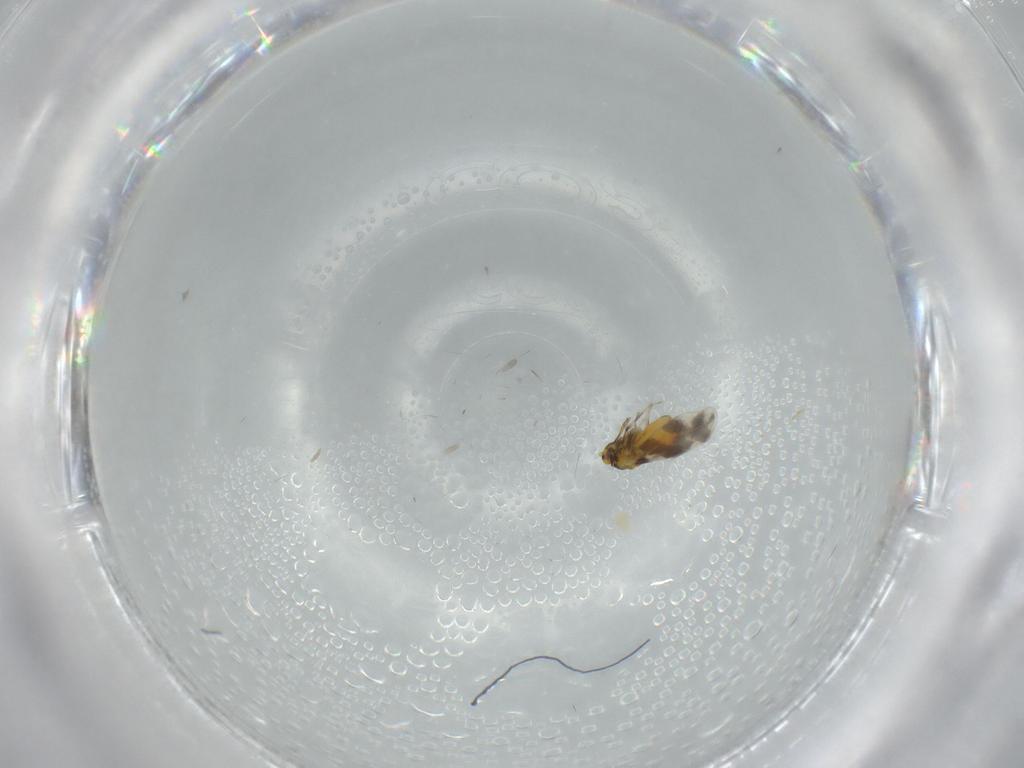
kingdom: Animalia
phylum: Arthropoda
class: Insecta
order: Hemiptera
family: Aleyrodidae
